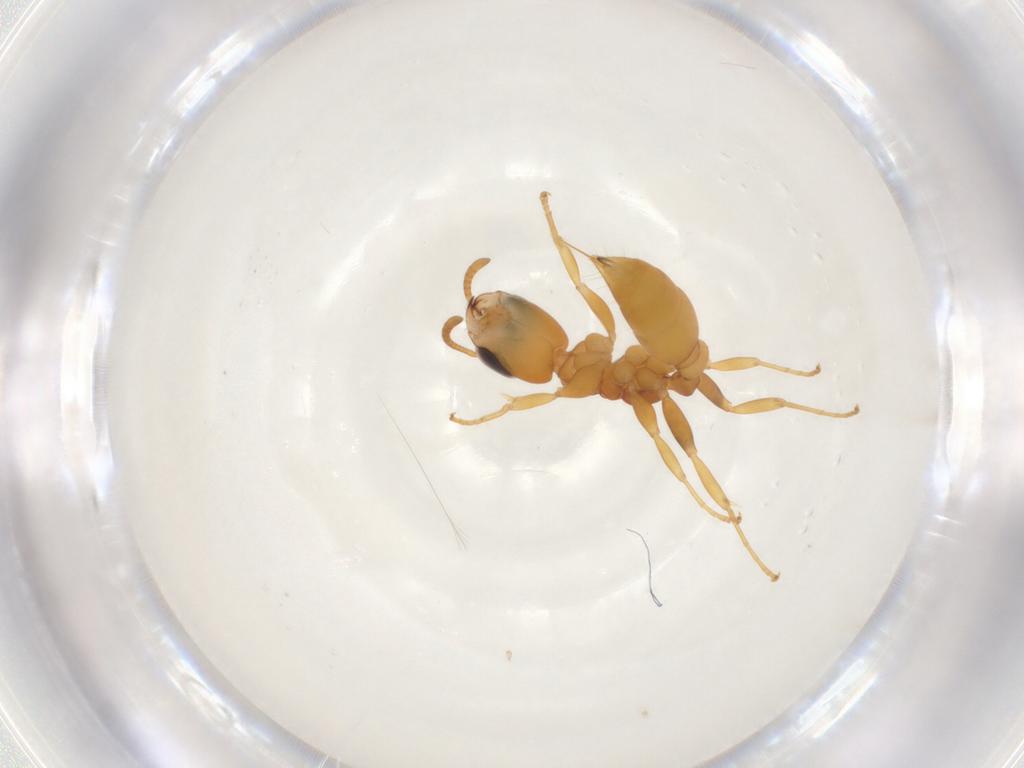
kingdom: Animalia
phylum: Arthropoda
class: Insecta
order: Hymenoptera
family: Formicidae
